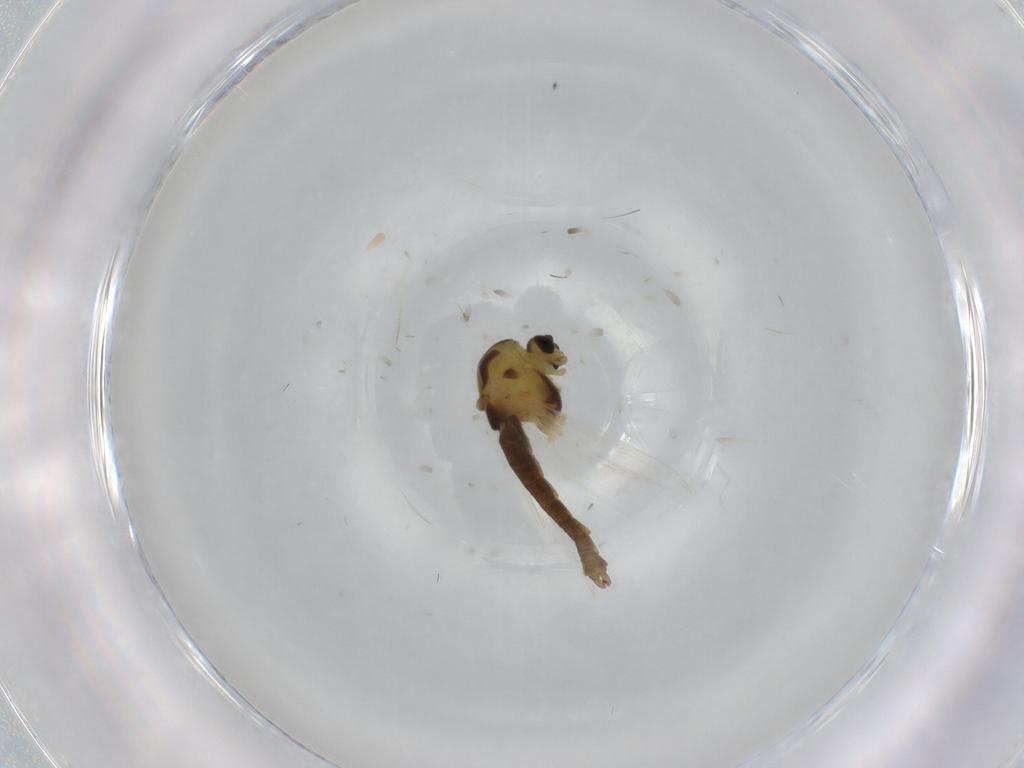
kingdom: Animalia
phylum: Arthropoda
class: Insecta
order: Diptera
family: Chironomidae
